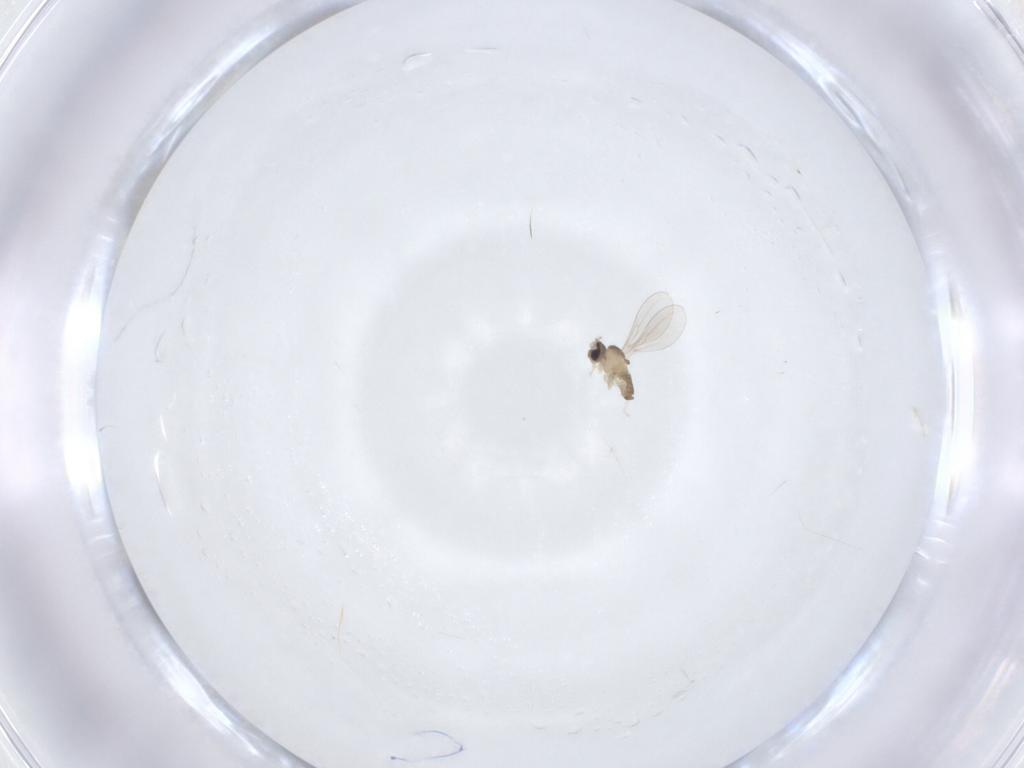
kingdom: Animalia
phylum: Arthropoda
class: Insecta
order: Diptera
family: Cecidomyiidae
